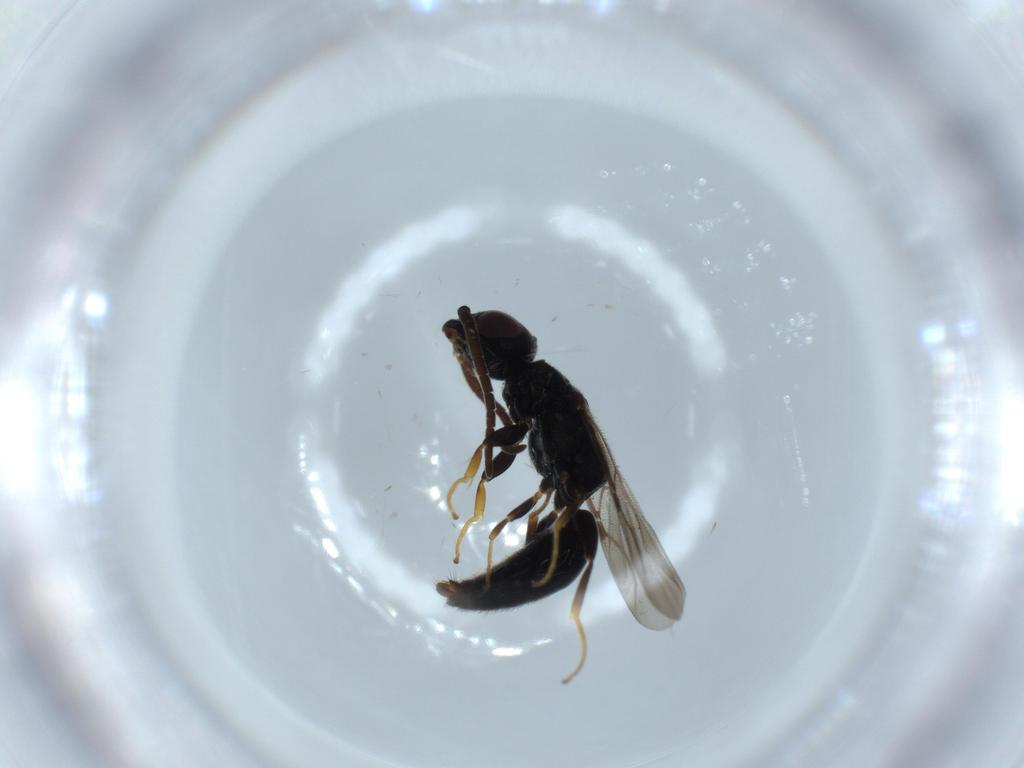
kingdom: Animalia
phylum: Arthropoda
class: Insecta
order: Hymenoptera
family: Bethylidae
